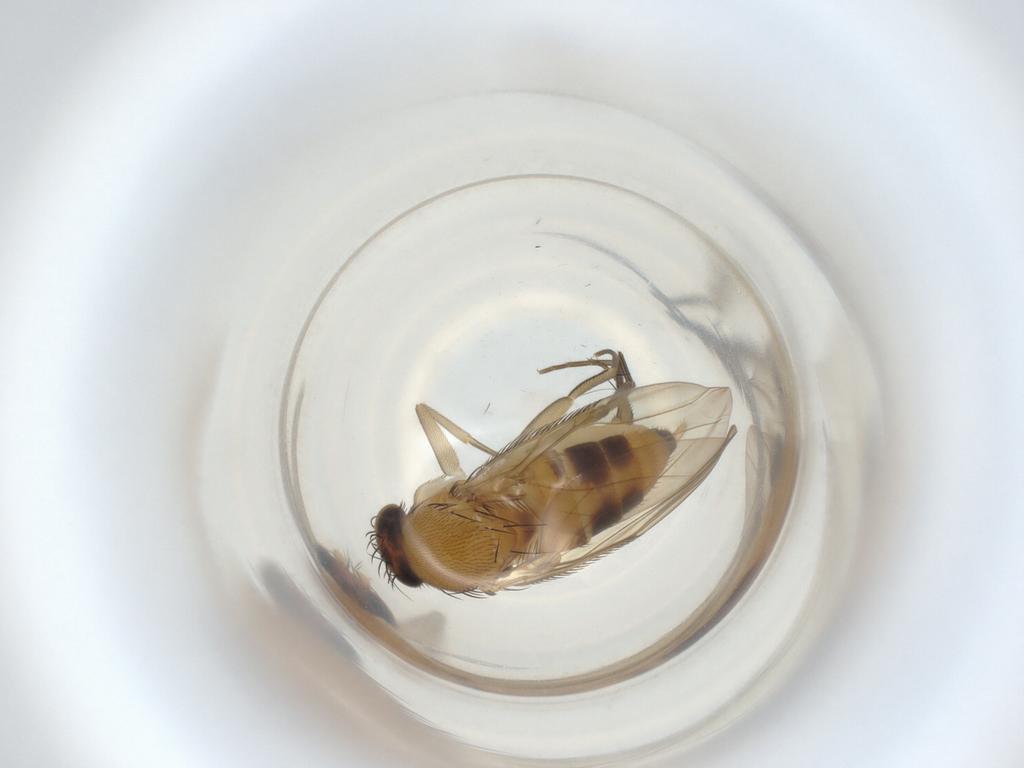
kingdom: Animalia
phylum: Arthropoda
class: Insecta
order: Diptera
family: Phoridae
